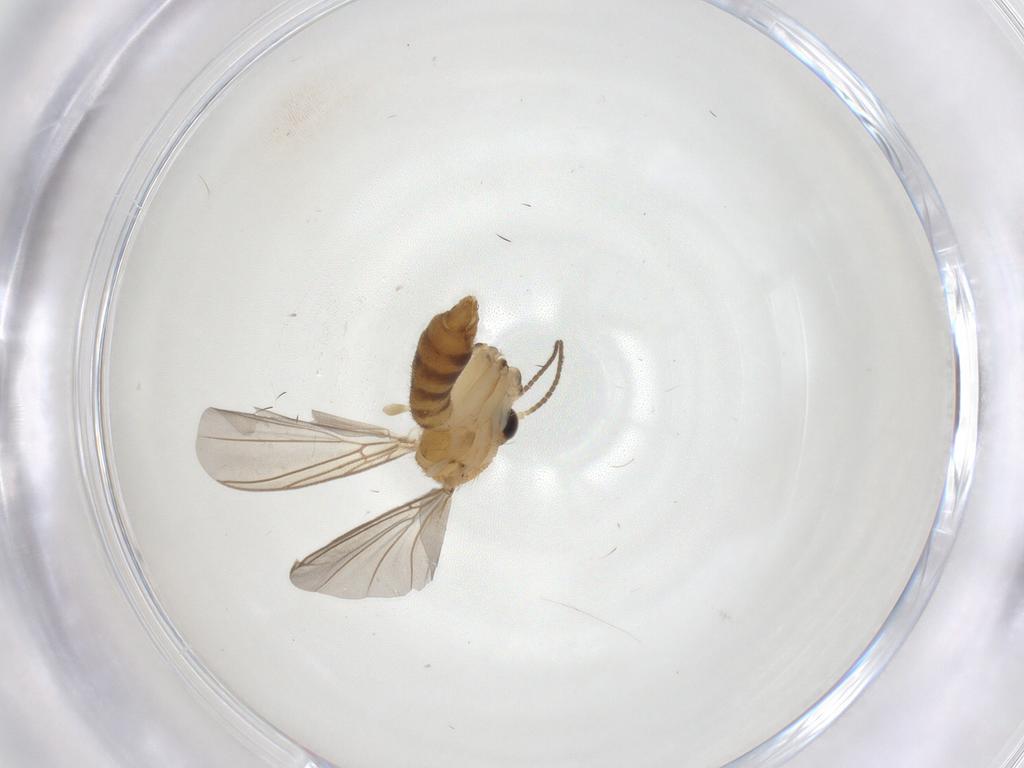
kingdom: Animalia
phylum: Arthropoda
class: Insecta
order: Diptera
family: Mycetophilidae
